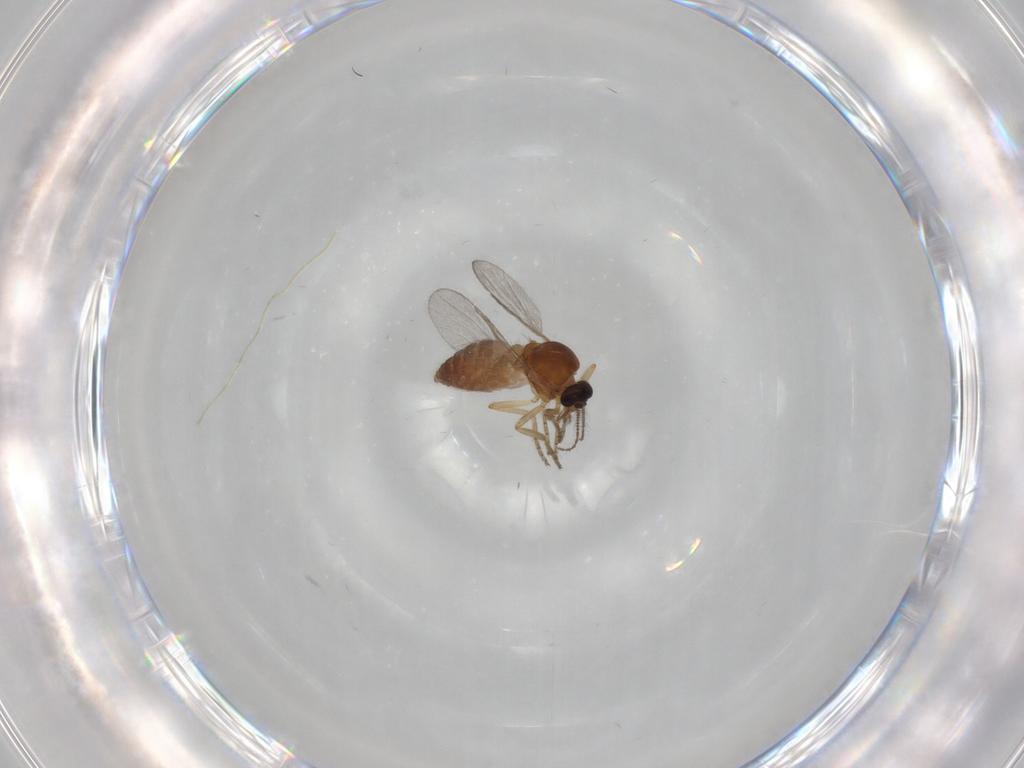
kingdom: Animalia
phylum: Arthropoda
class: Insecta
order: Diptera
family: Ceratopogonidae
